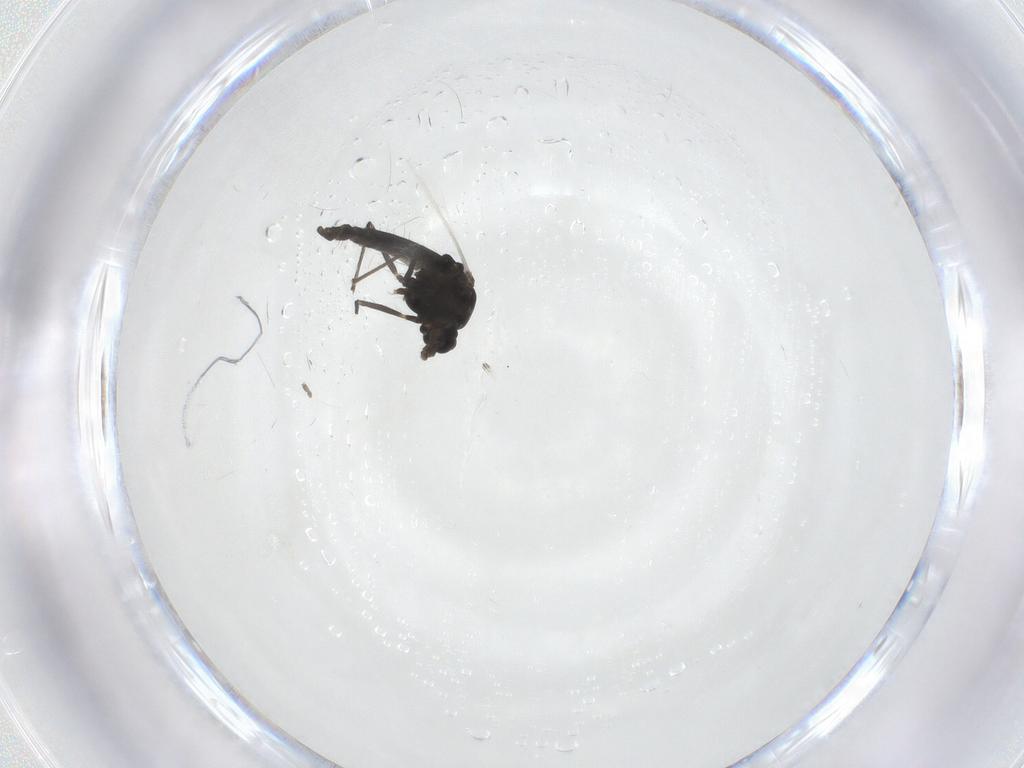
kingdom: Animalia
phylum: Arthropoda
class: Insecta
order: Diptera
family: Chironomidae
